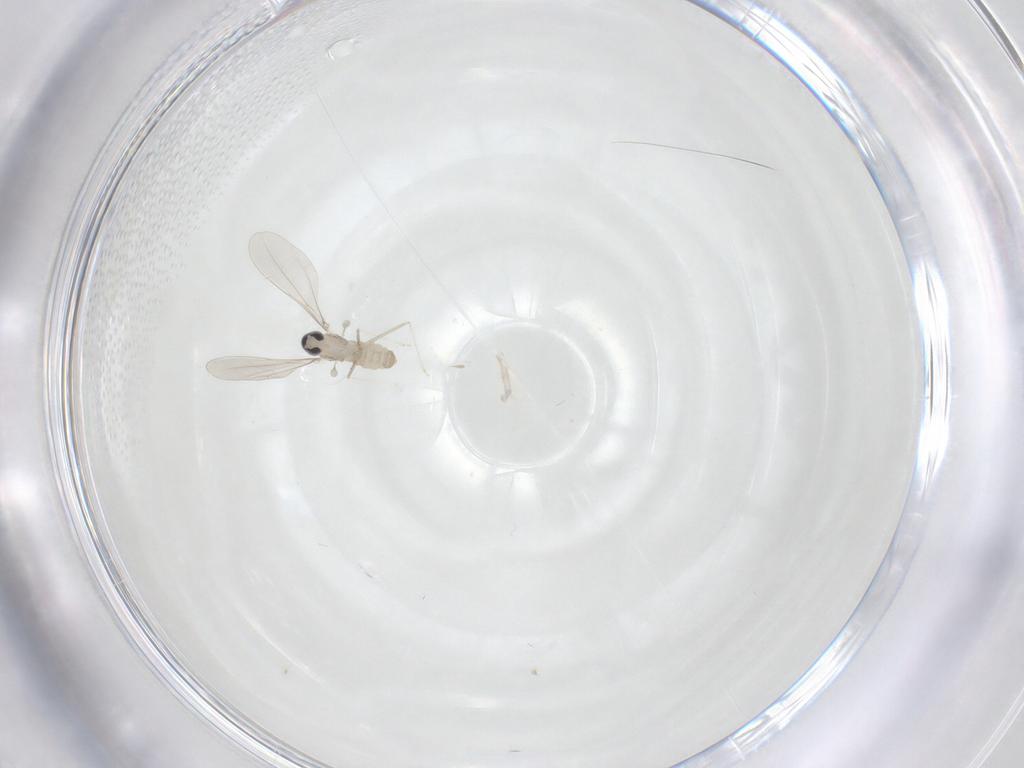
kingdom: Animalia
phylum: Arthropoda
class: Insecta
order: Diptera
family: Cecidomyiidae
